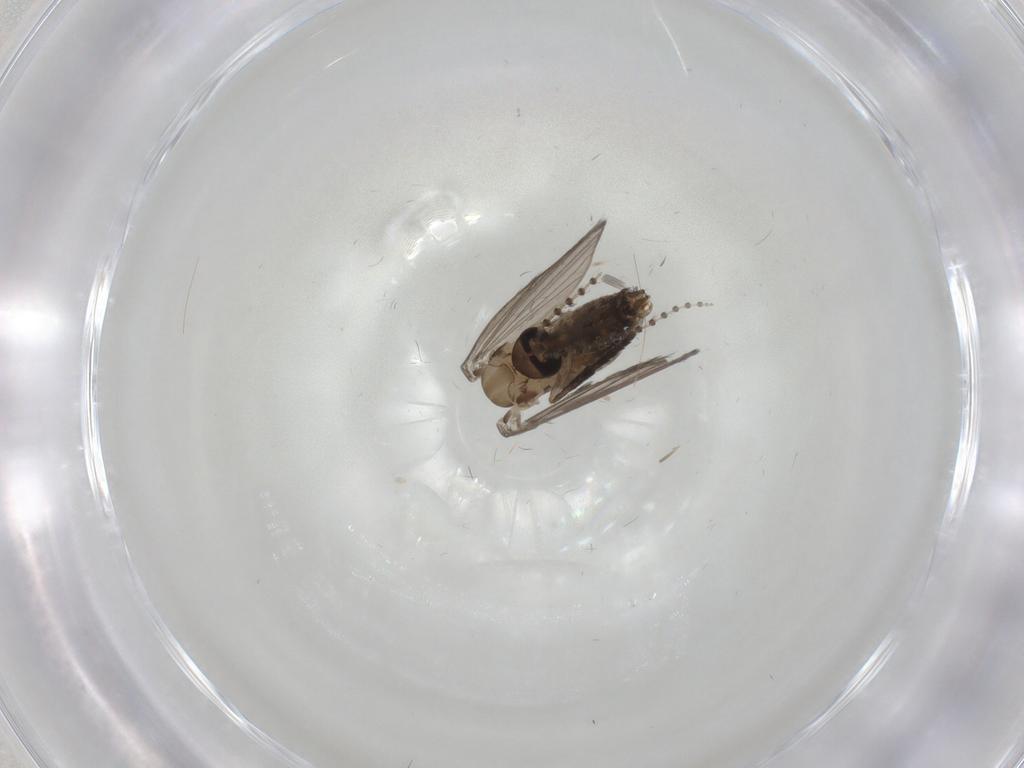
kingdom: Animalia
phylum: Arthropoda
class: Insecta
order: Diptera
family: Psychodidae
